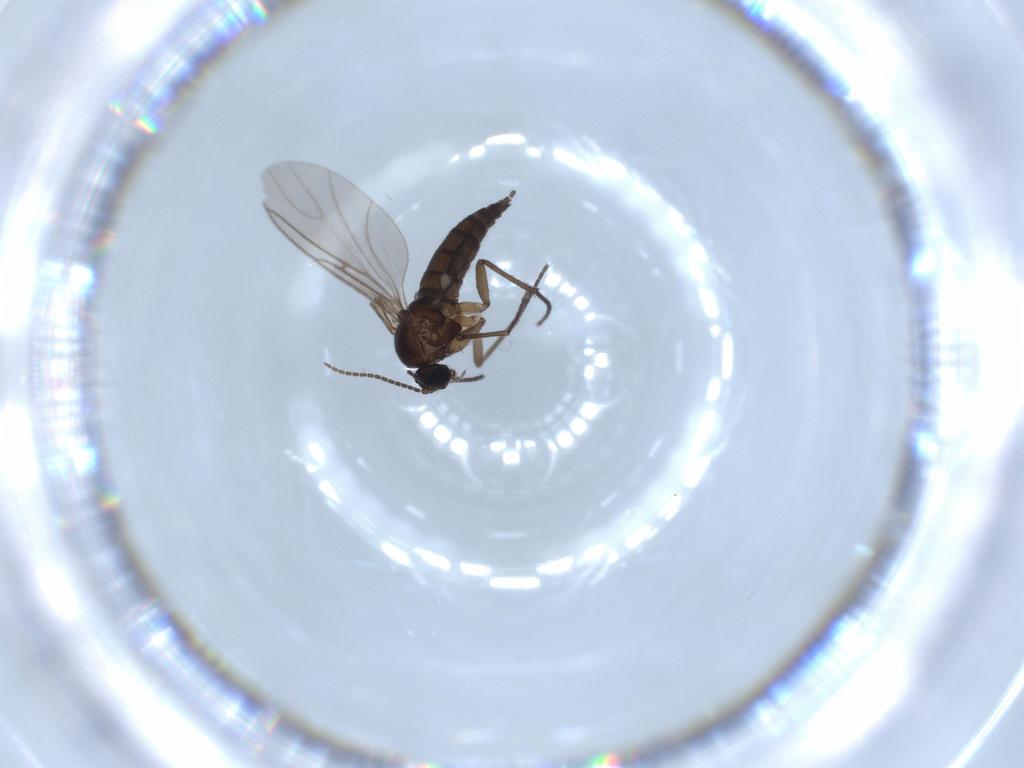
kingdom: Animalia
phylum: Arthropoda
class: Insecta
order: Diptera
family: Sciaridae
